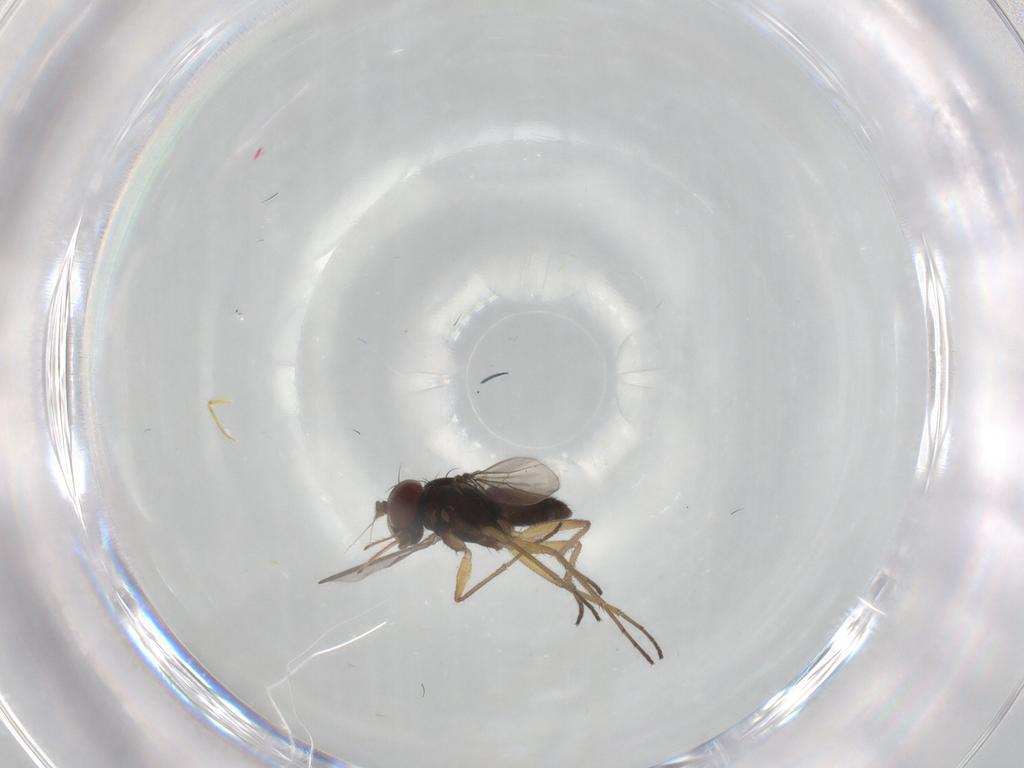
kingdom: Animalia
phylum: Arthropoda
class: Insecta
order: Diptera
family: Dolichopodidae
